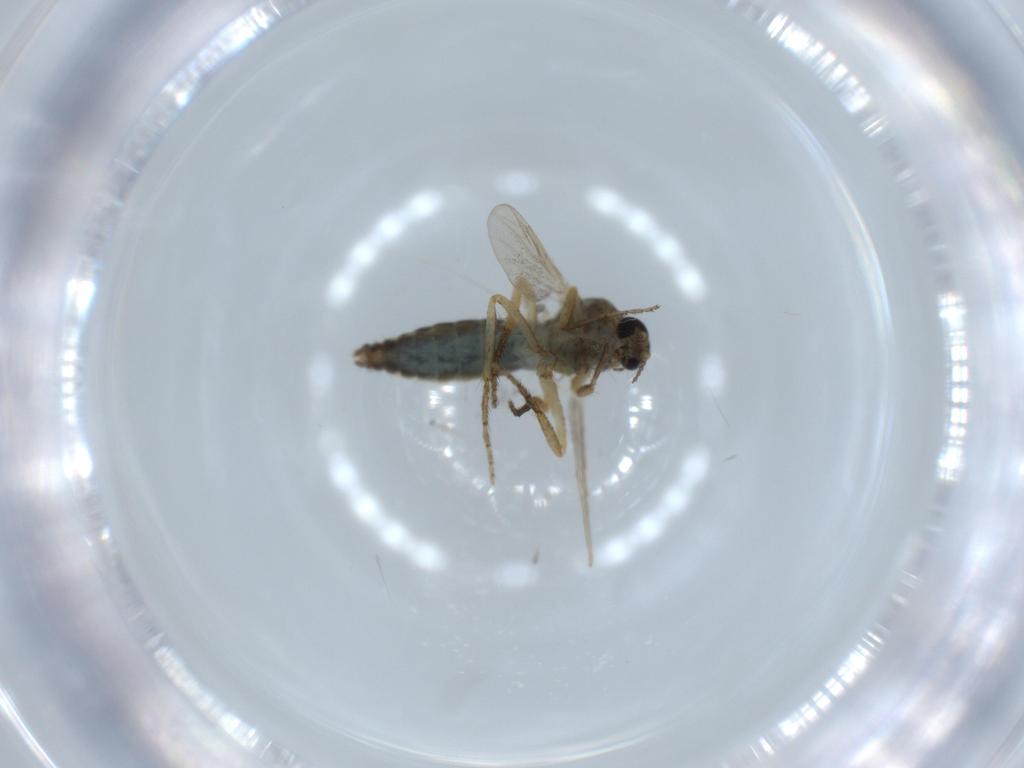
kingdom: Animalia
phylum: Arthropoda
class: Insecta
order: Diptera
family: Ceratopogonidae
